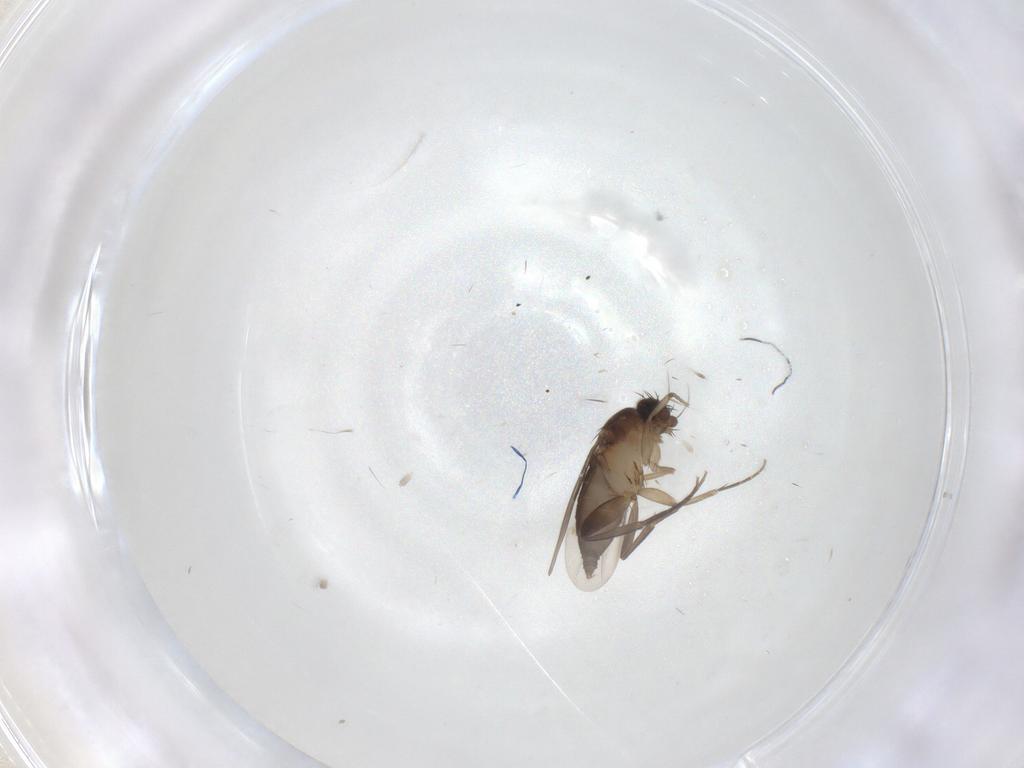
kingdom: Animalia
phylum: Arthropoda
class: Insecta
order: Diptera
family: Phoridae
